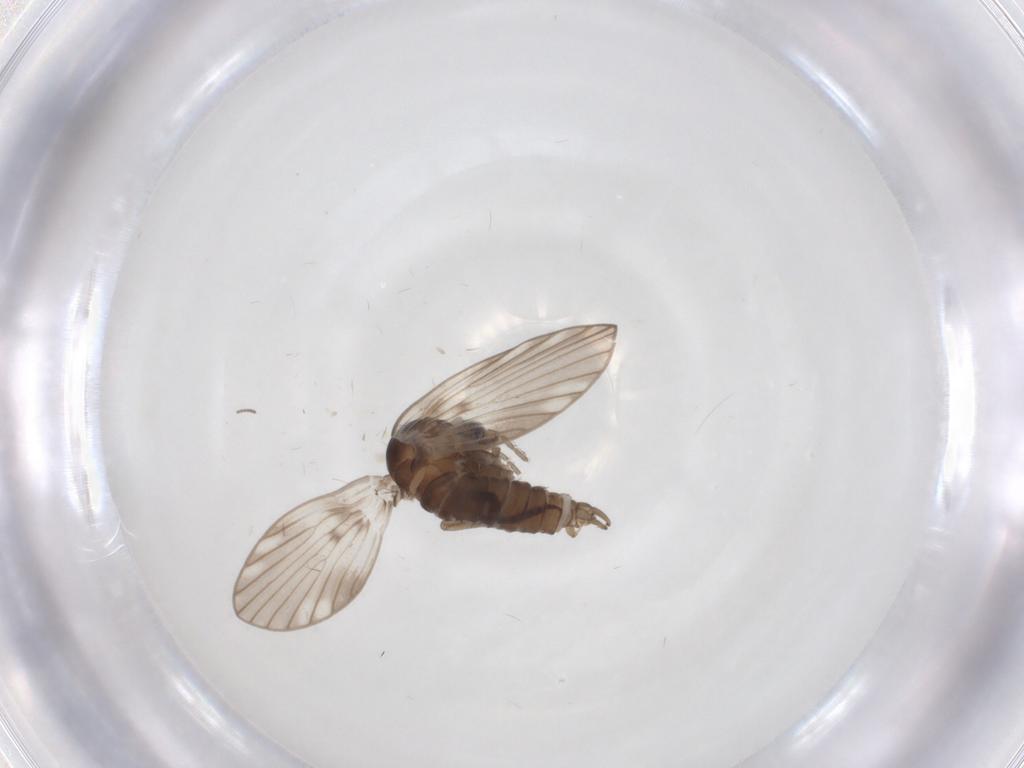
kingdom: Animalia
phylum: Arthropoda
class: Insecta
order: Diptera
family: Psychodidae
